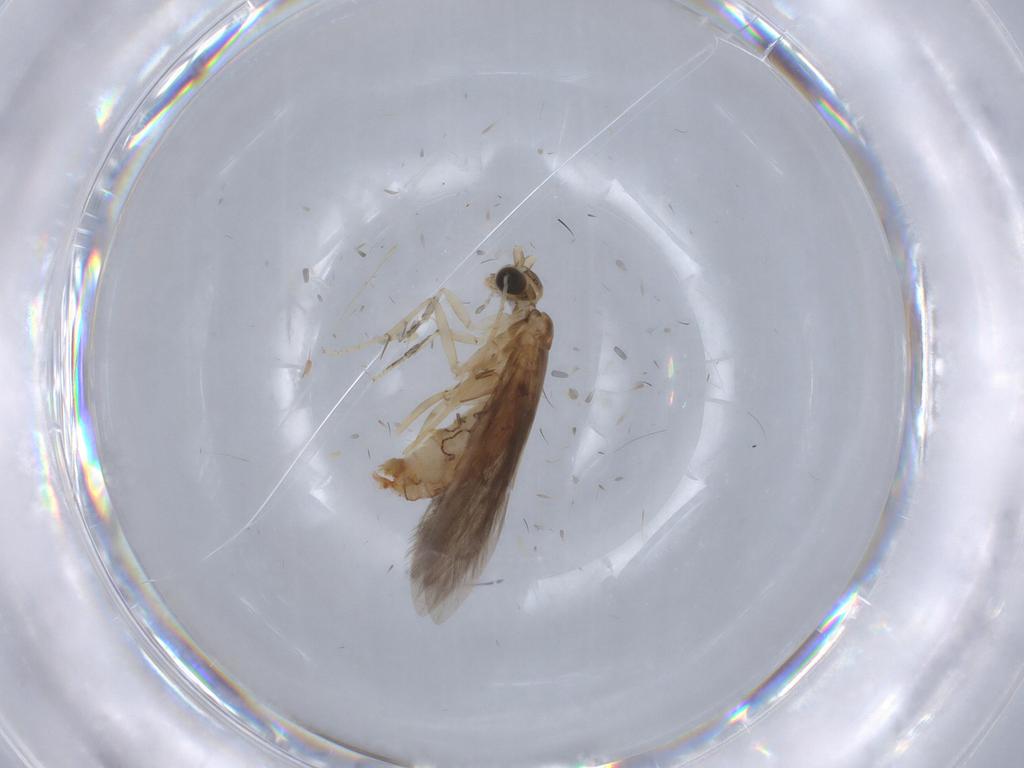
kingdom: Animalia
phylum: Arthropoda
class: Insecta
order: Trichoptera
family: Glossosomatidae
